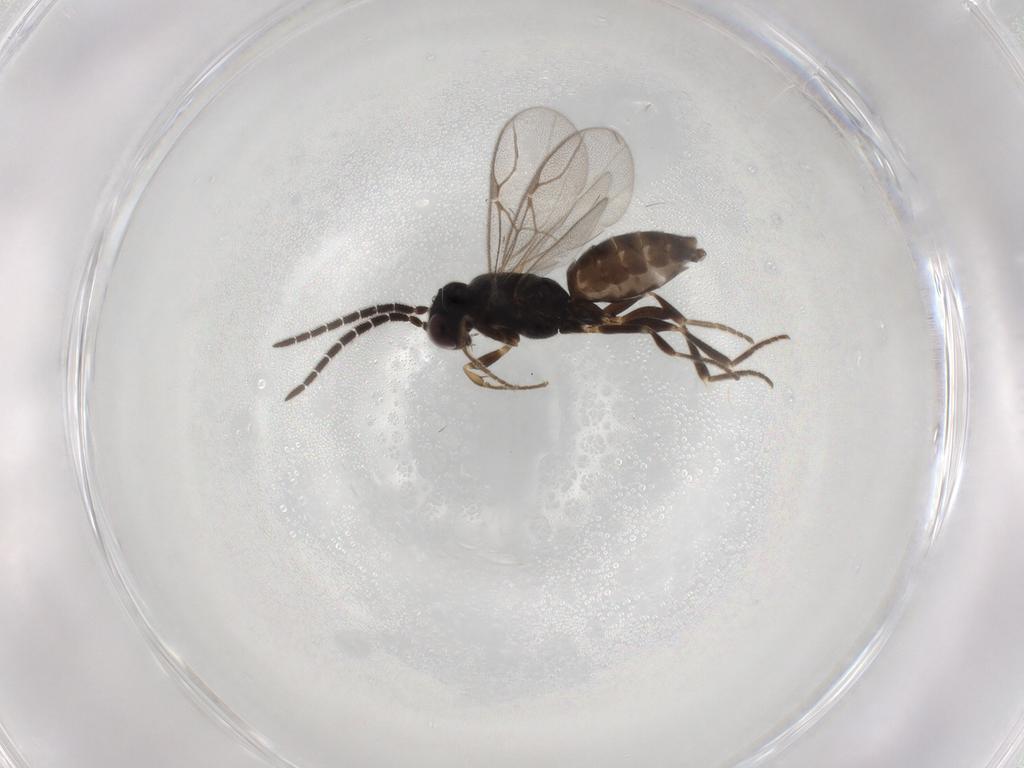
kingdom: Animalia
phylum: Arthropoda
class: Insecta
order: Hymenoptera
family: Dryinidae
